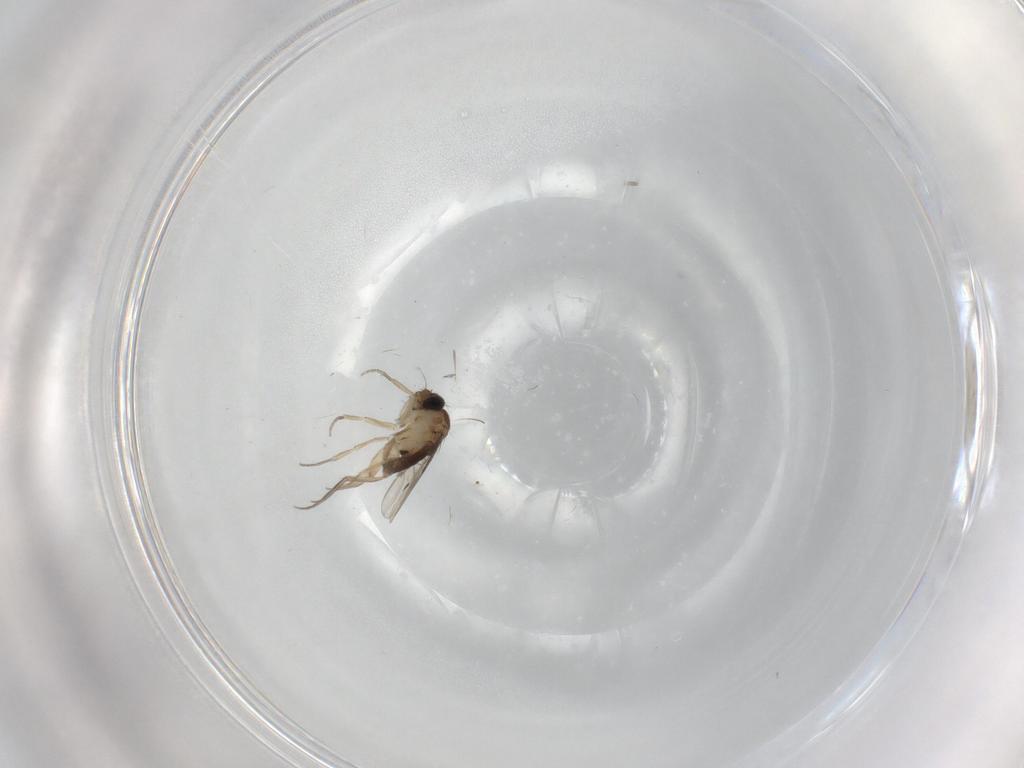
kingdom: Animalia
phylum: Arthropoda
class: Insecta
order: Diptera
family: Phoridae
